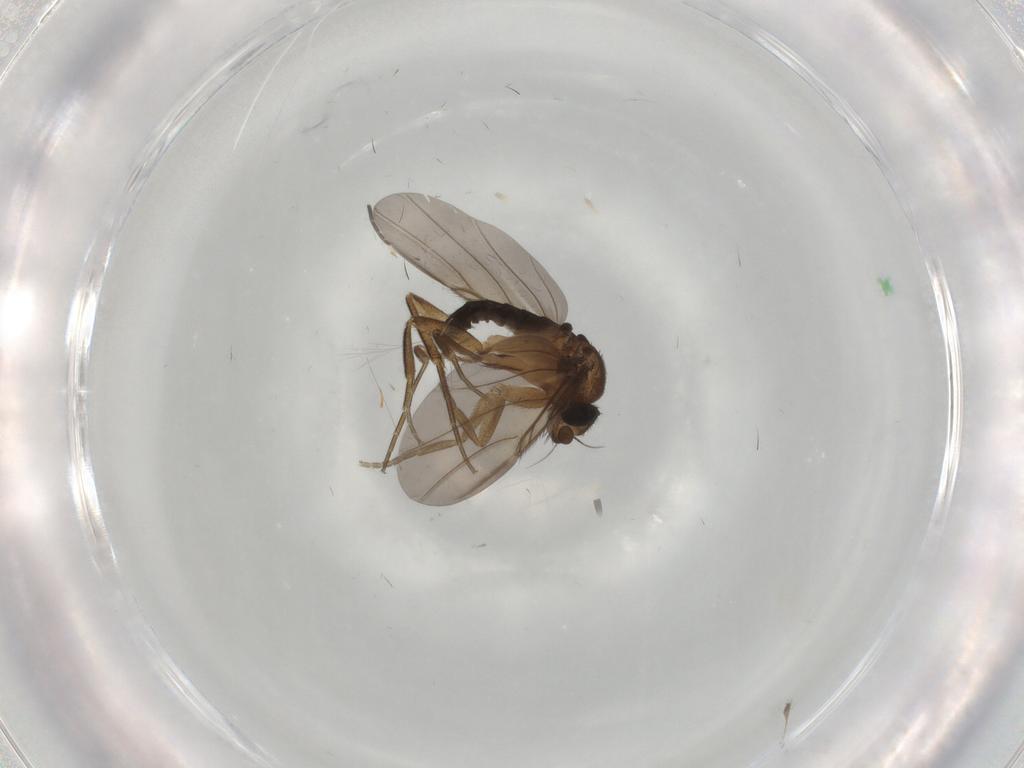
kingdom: Animalia
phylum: Arthropoda
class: Insecta
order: Diptera
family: Phoridae
